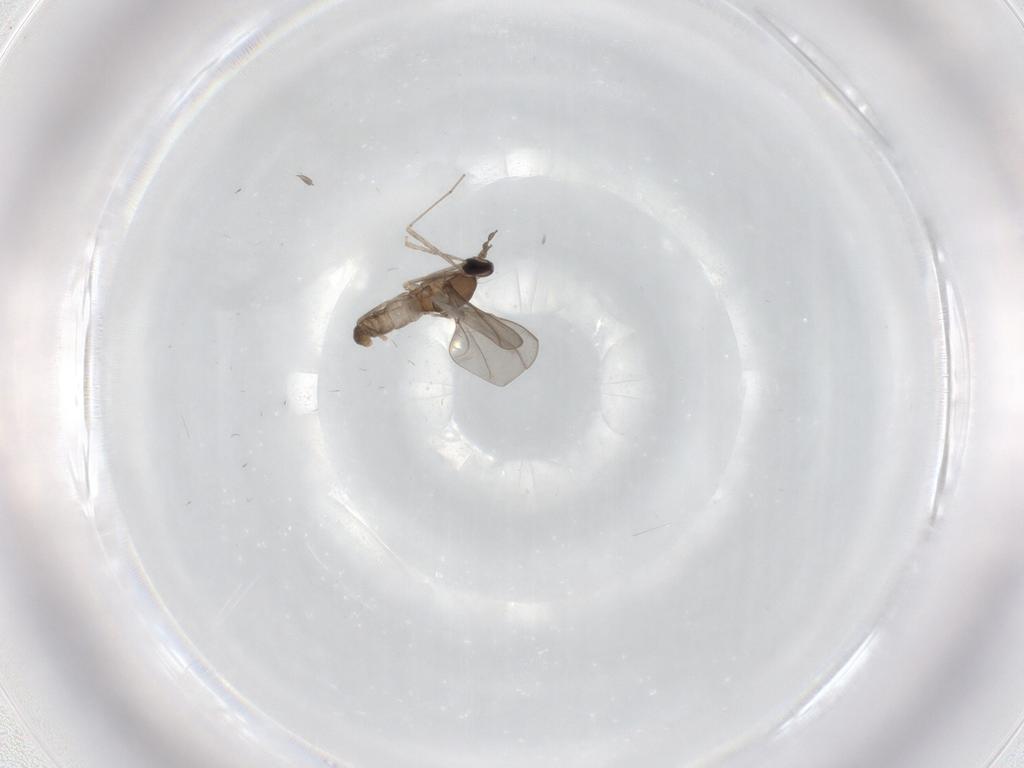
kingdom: Animalia
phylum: Arthropoda
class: Insecta
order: Diptera
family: Cecidomyiidae
